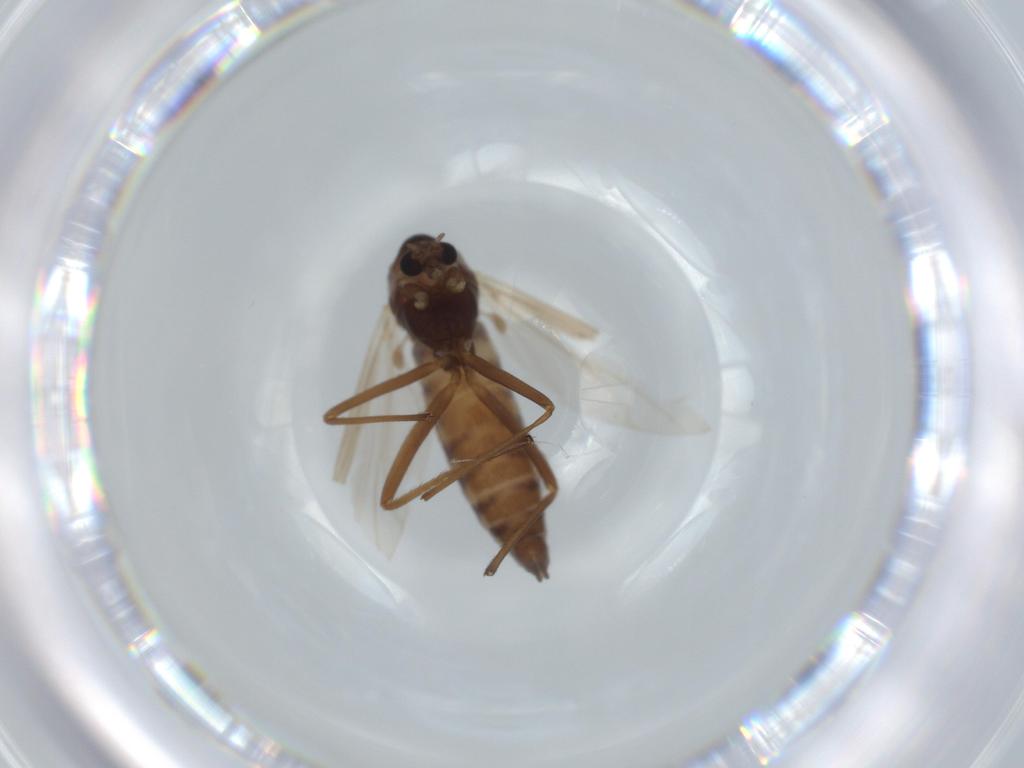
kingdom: Animalia
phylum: Arthropoda
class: Insecta
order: Diptera
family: Chironomidae
